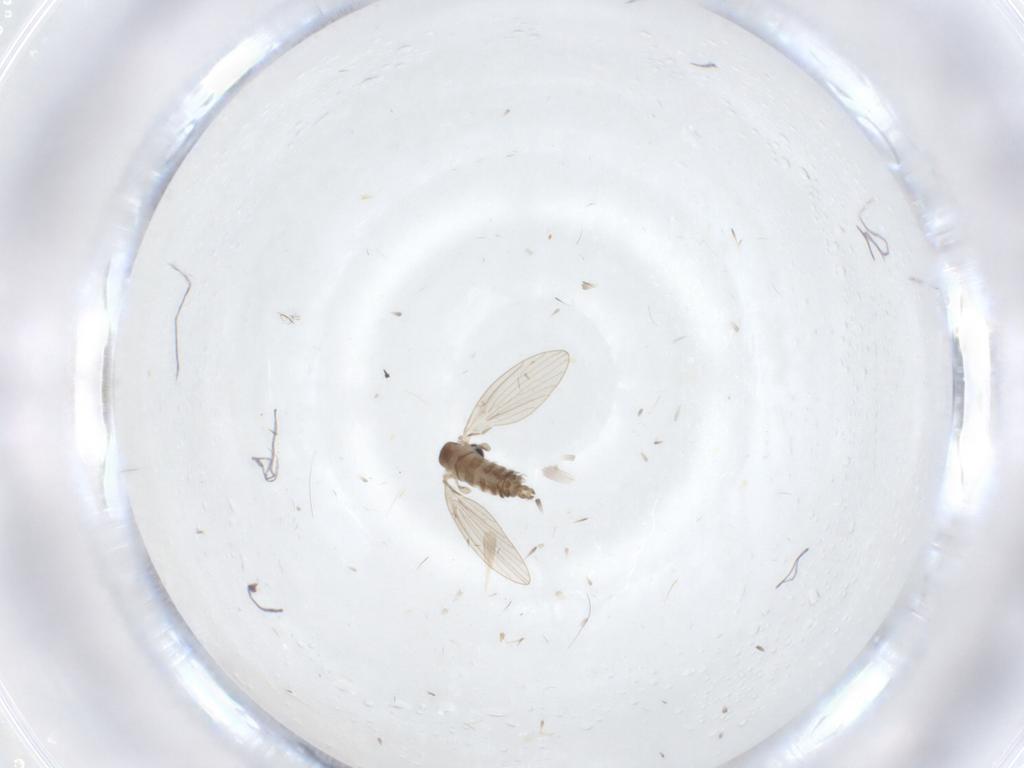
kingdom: Animalia
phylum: Arthropoda
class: Insecta
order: Diptera
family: Psychodidae
